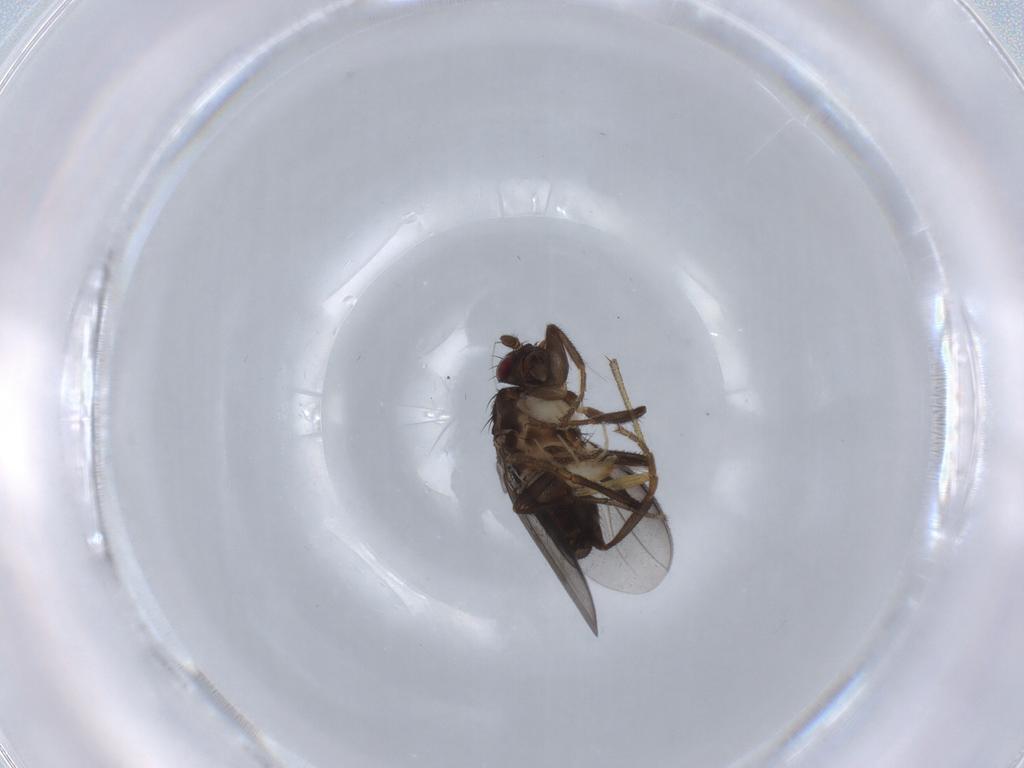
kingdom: Animalia
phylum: Arthropoda
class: Insecta
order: Diptera
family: Sphaeroceridae
